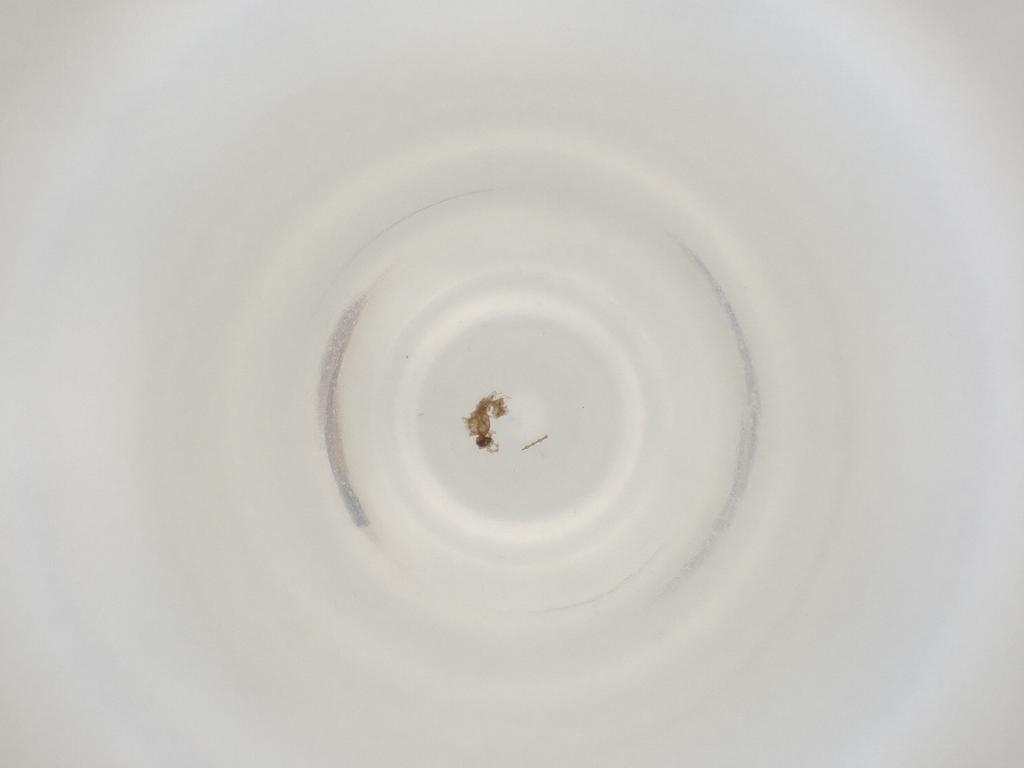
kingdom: Animalia
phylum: Arthropoda
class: Insecta
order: Diptera
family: Cecidomyiidae
